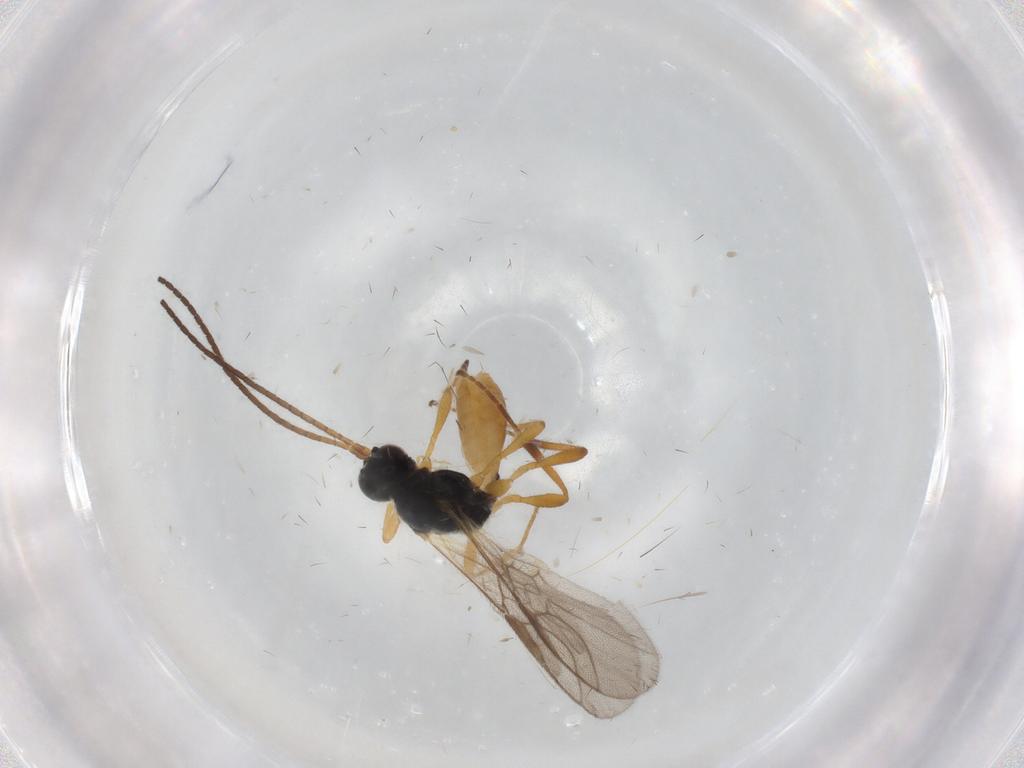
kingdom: Animalia
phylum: Arthropoda
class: Insecta
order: Hymenoptera
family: Braconidae
